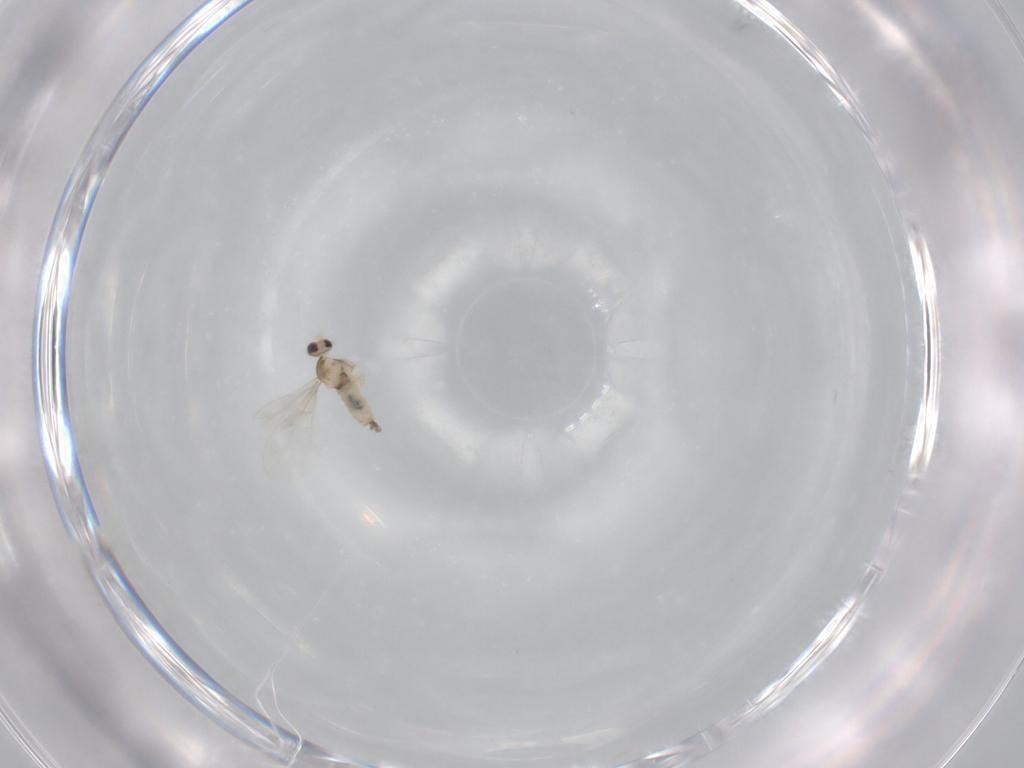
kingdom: Animalia
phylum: Arthropoda
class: Insecta
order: Diptera
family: Cecidomyiidae
